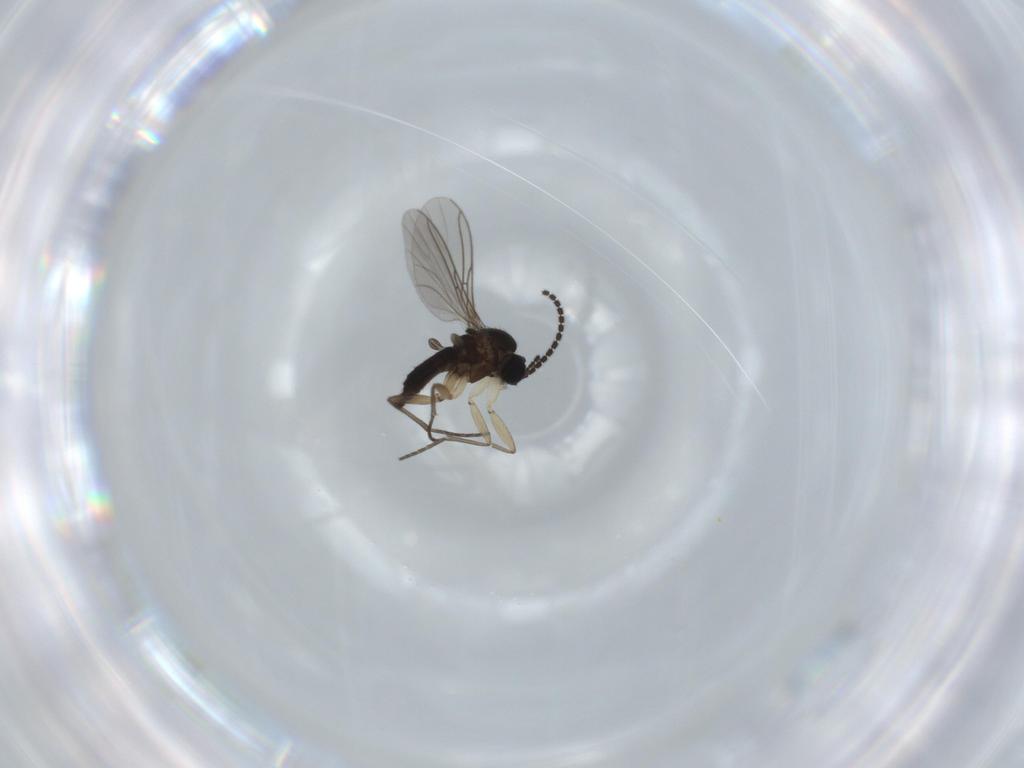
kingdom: Animalia
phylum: Arthropoda
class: Insecta
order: Diptera
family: Sciaridae
